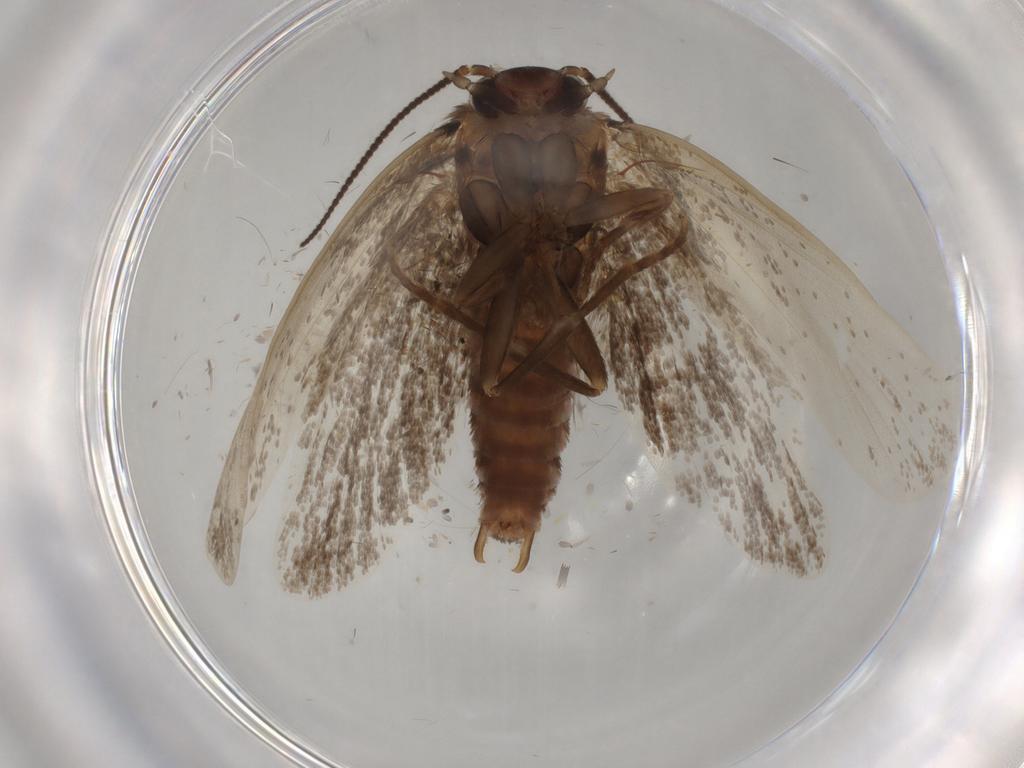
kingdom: Animalia
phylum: Arthropoda
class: Insecta
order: Lepidoptera
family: Tineidae
